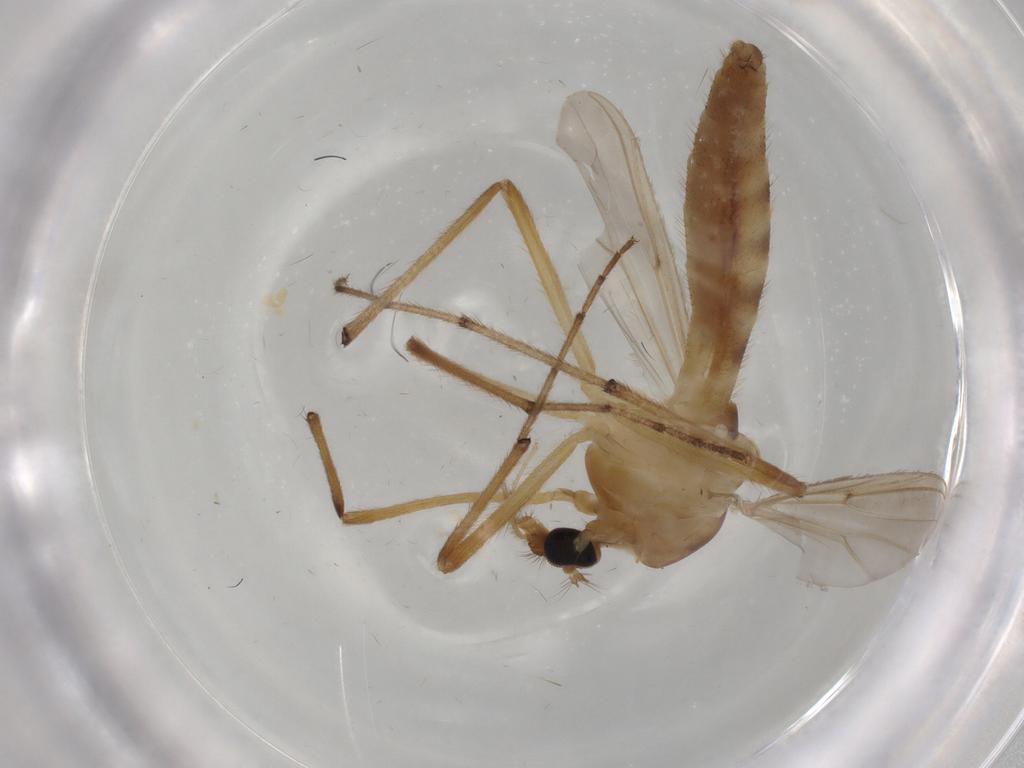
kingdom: Animalia
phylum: Arthropoda
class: Insecta
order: Diptera
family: Chironomidae
